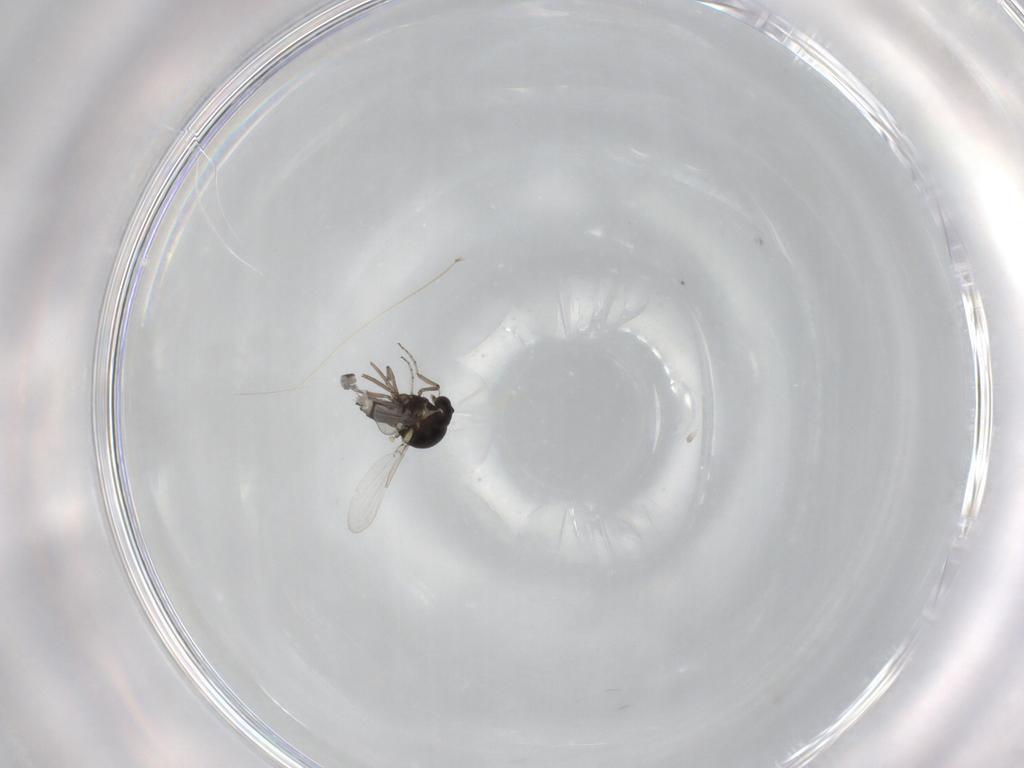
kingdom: Animalia
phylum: Arthropoda
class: Insecta
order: Diptera
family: Ceratopogonidae
